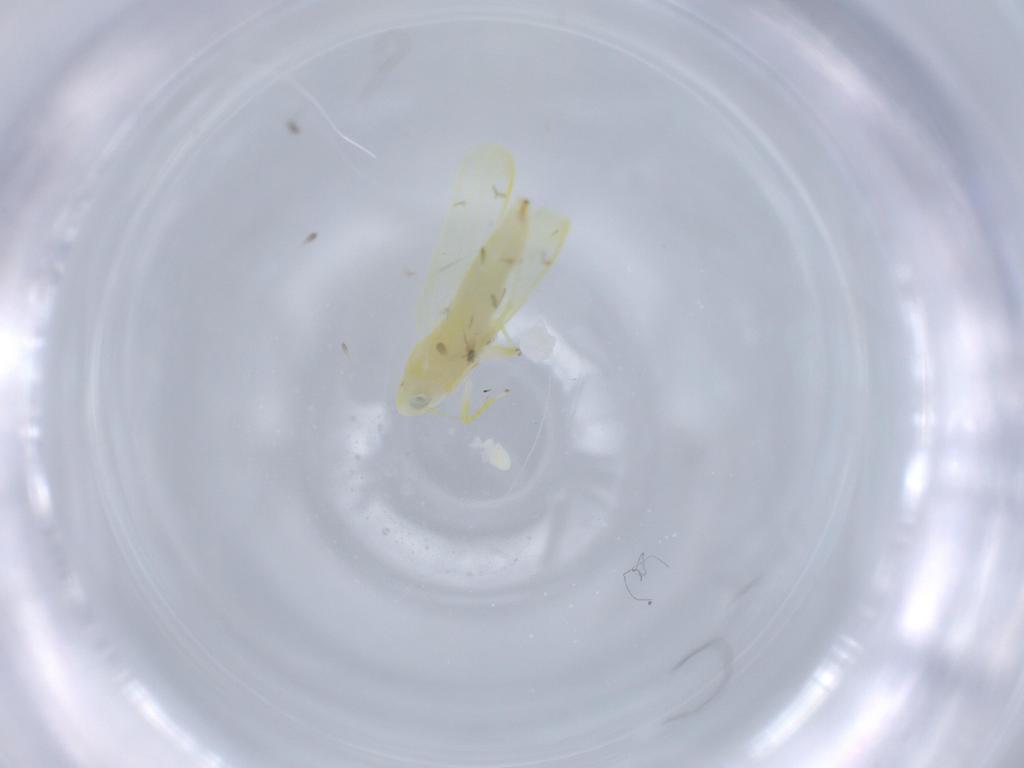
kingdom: Animalia
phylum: Arthropoda
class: Insecta
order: Hemiptera
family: Cicadellidae
